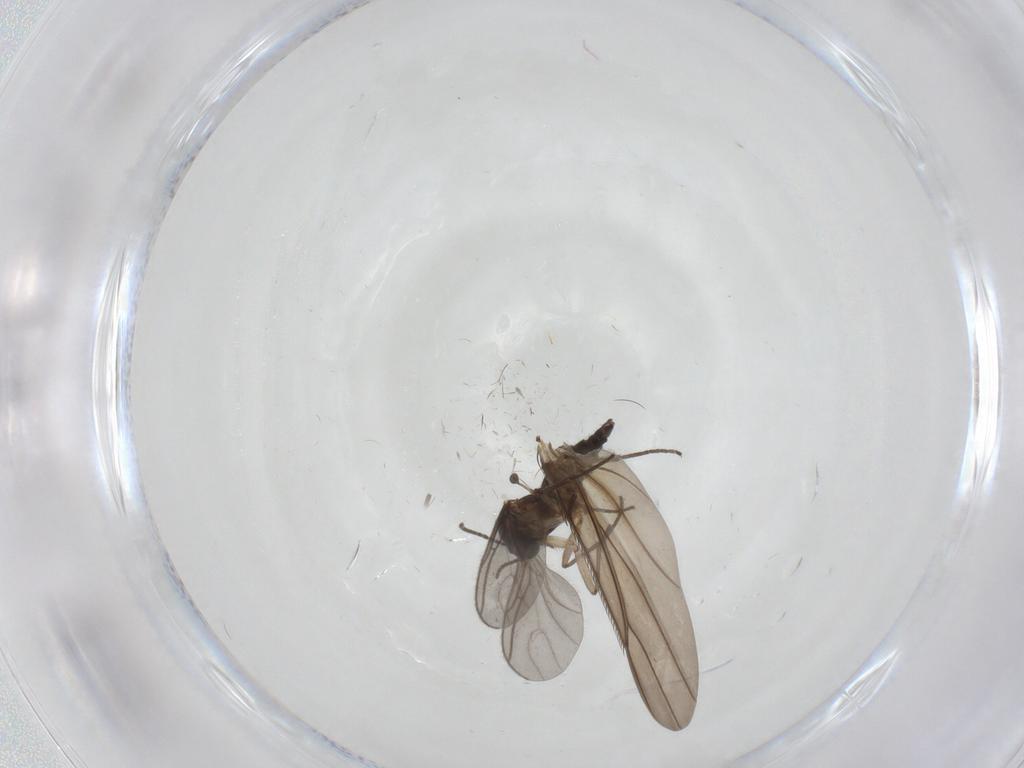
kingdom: Animalia
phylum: Arthropoda
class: Insecta
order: Diptera
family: Sciaridae
